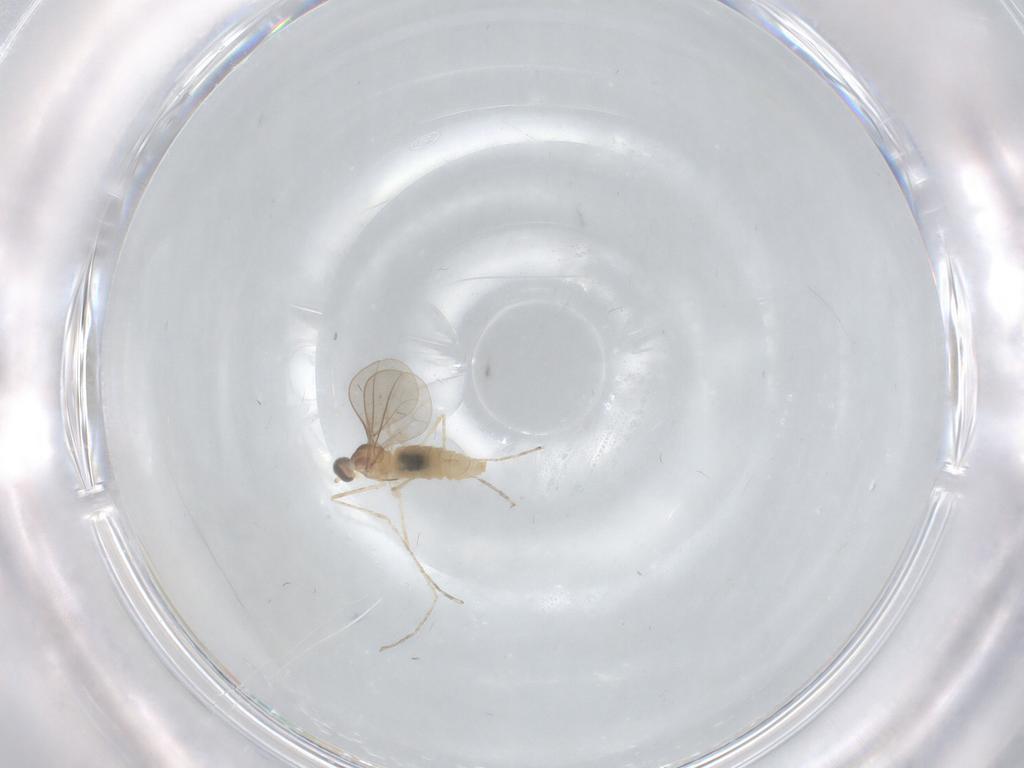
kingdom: Animalia
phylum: Arthropoda
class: Insecta
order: Diptera
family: Cecidomyiidae
